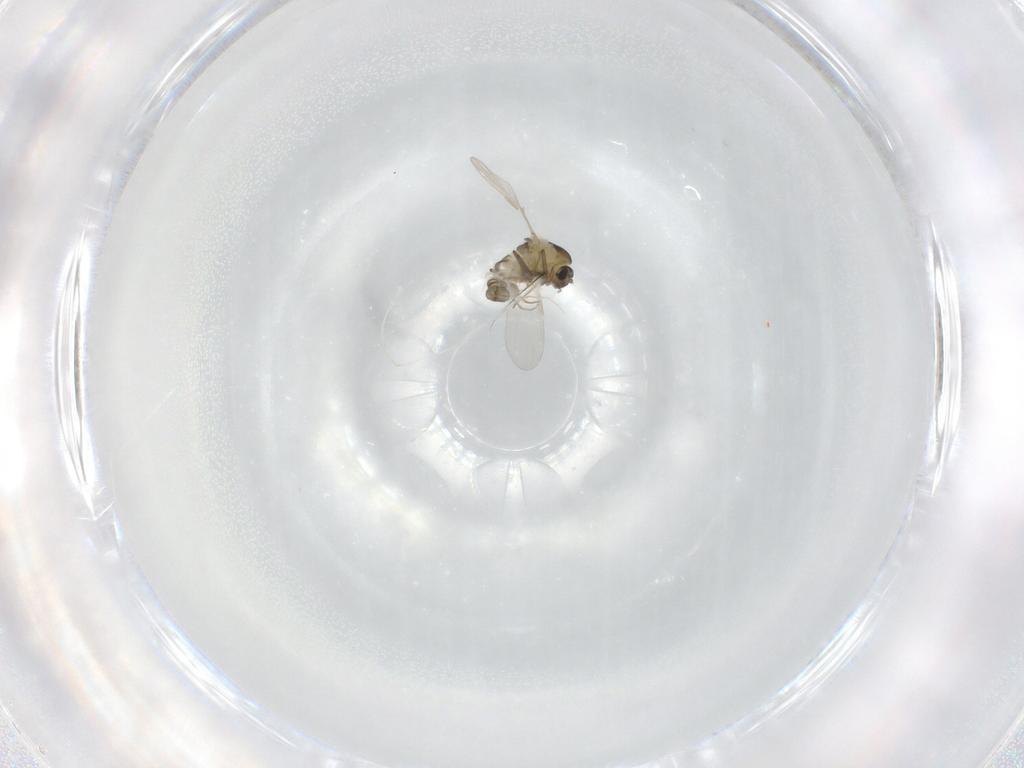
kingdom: Animalia
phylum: Arthropoda
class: Insecta
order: Diptera
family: Chironomidae
